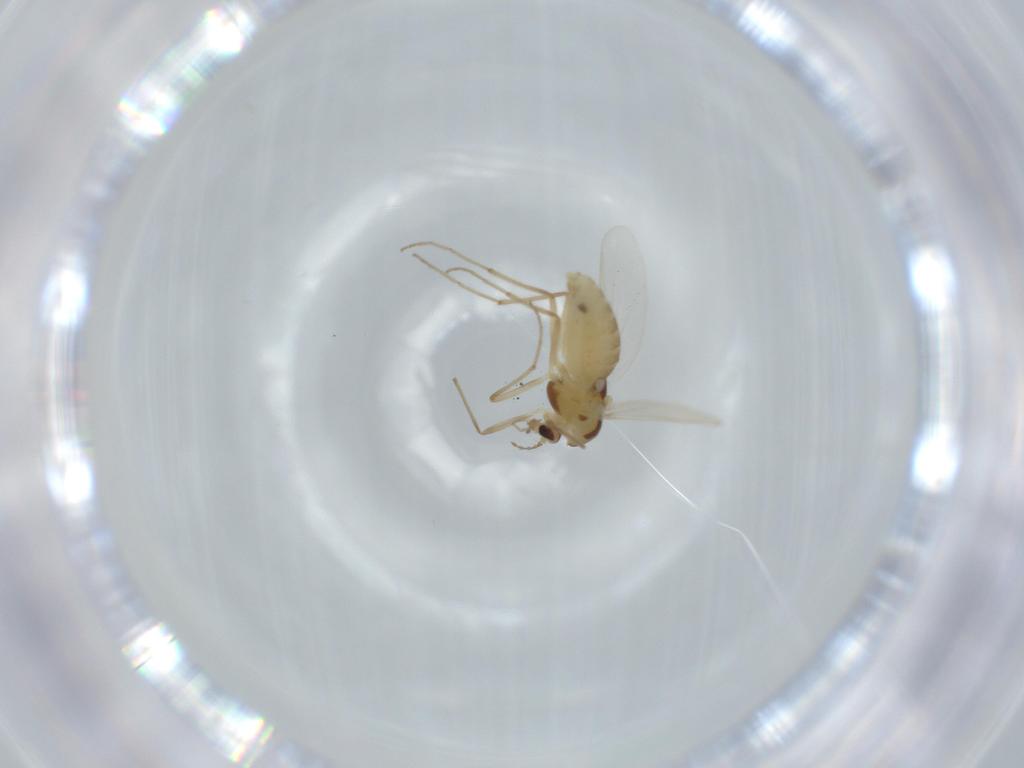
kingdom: Animalia
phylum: Arthropoda
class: Insecta
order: Diptera
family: Chironomidae
